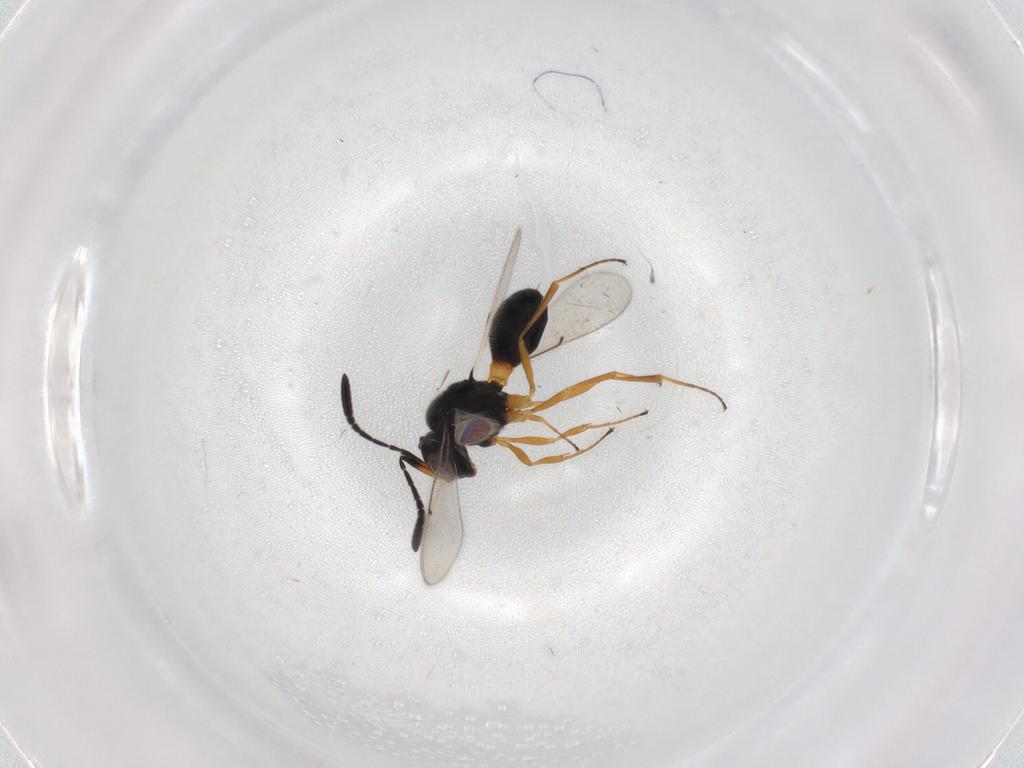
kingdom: Animalia
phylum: Arthropoda
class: Insecta
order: Hymenoptera
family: Scelionidae
